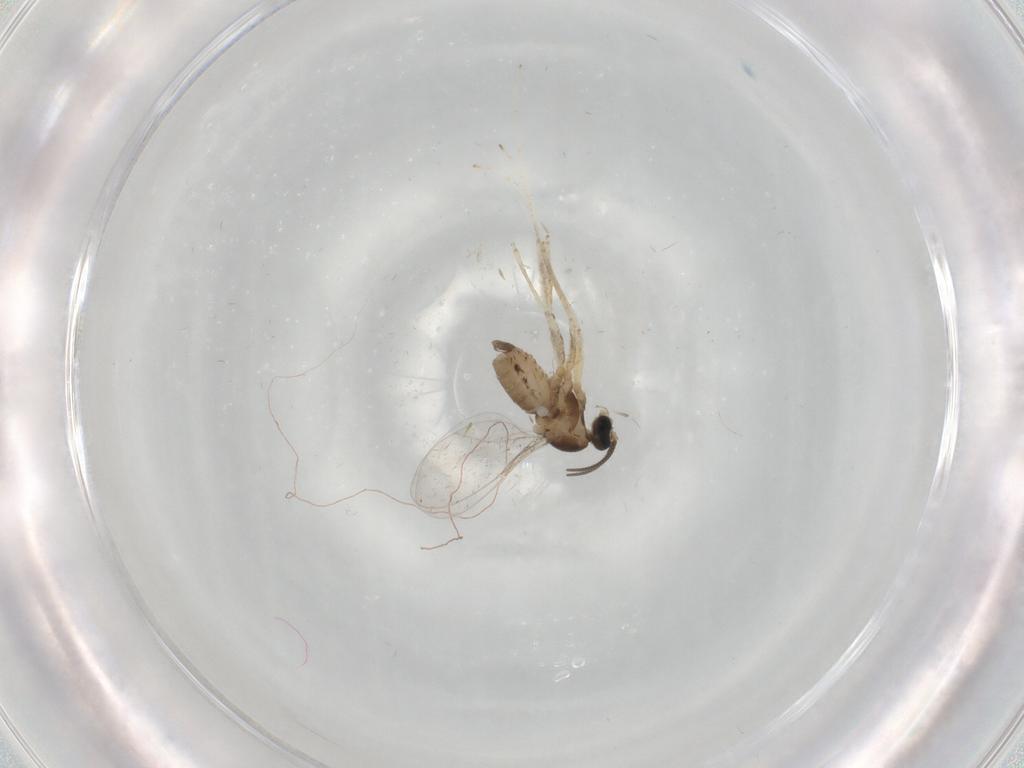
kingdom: Animalia
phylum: Arthropoda
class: Insecta
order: Diptera
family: Cecidomyiidae
